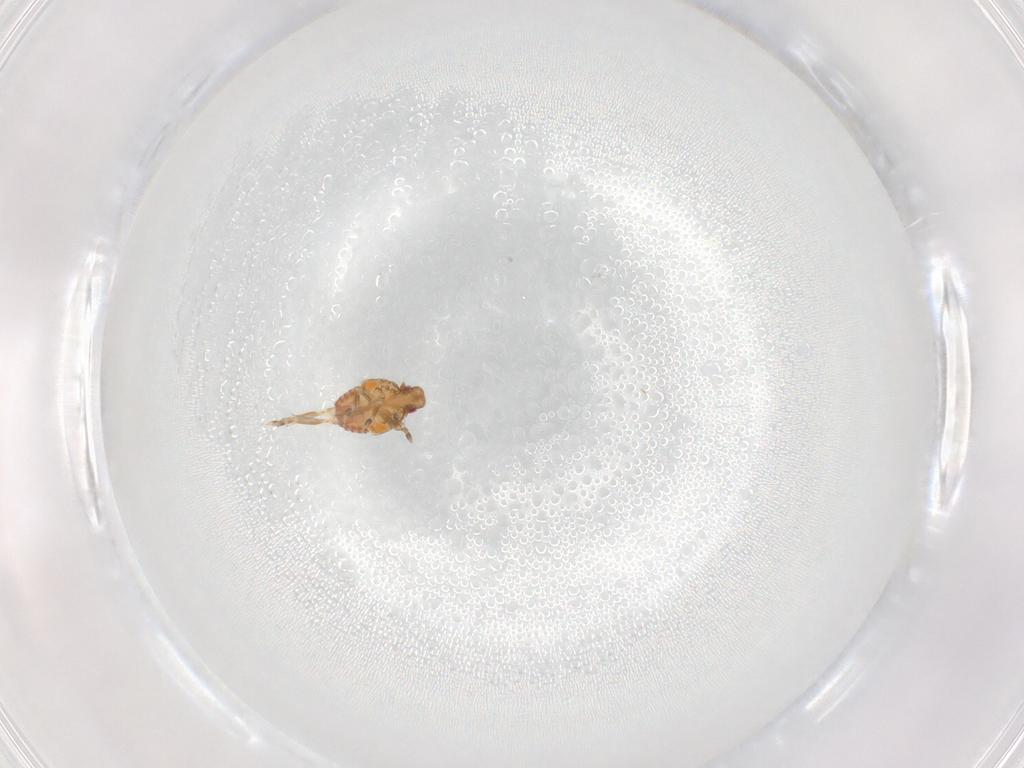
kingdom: Animalia
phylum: Arthropoda
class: Insecta
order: Hemiptera
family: Flatidae
